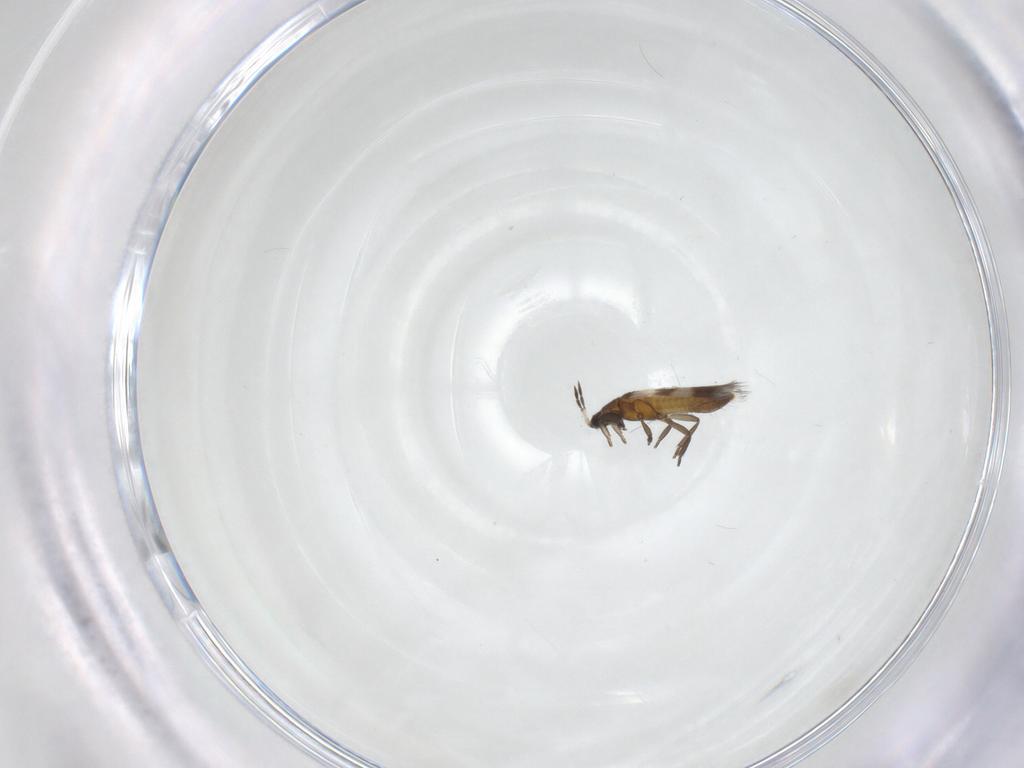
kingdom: Animalia
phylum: Arthropoda
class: Insecta
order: Thysanoptera
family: Aeolothripidae
